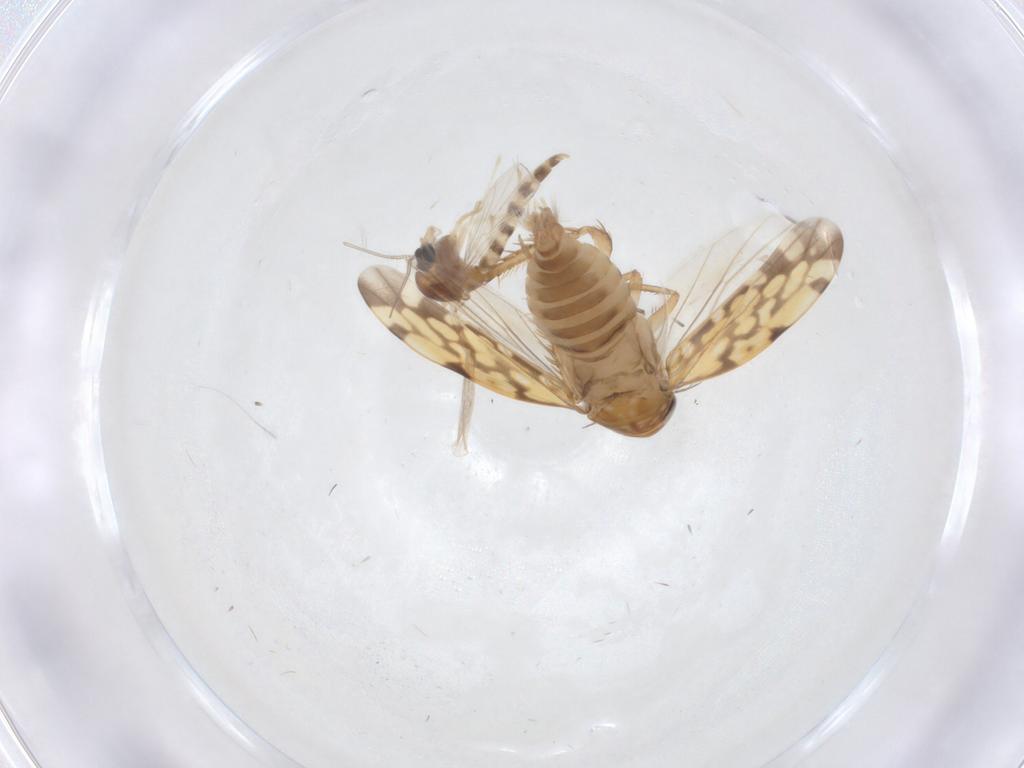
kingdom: Animalia
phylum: Arthropoda
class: Insecta
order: Hemiptera
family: Cicadellidae
